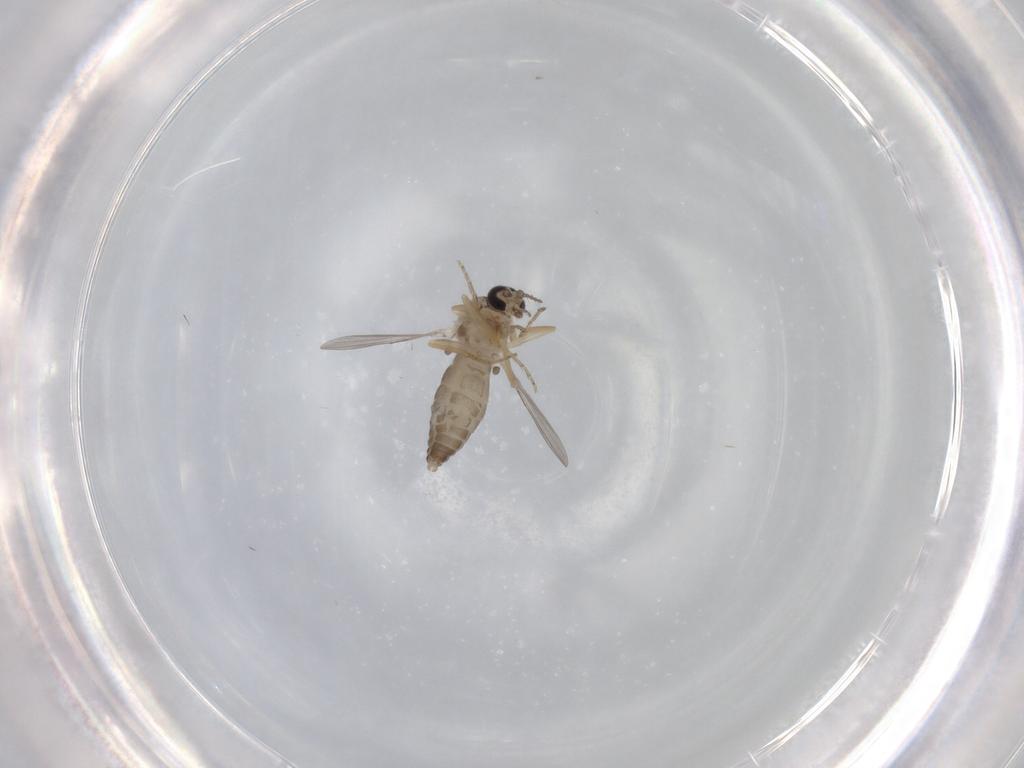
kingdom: Animalia
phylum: Arthropoda
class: Insecta
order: Diptera
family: Ceratopogonidae
